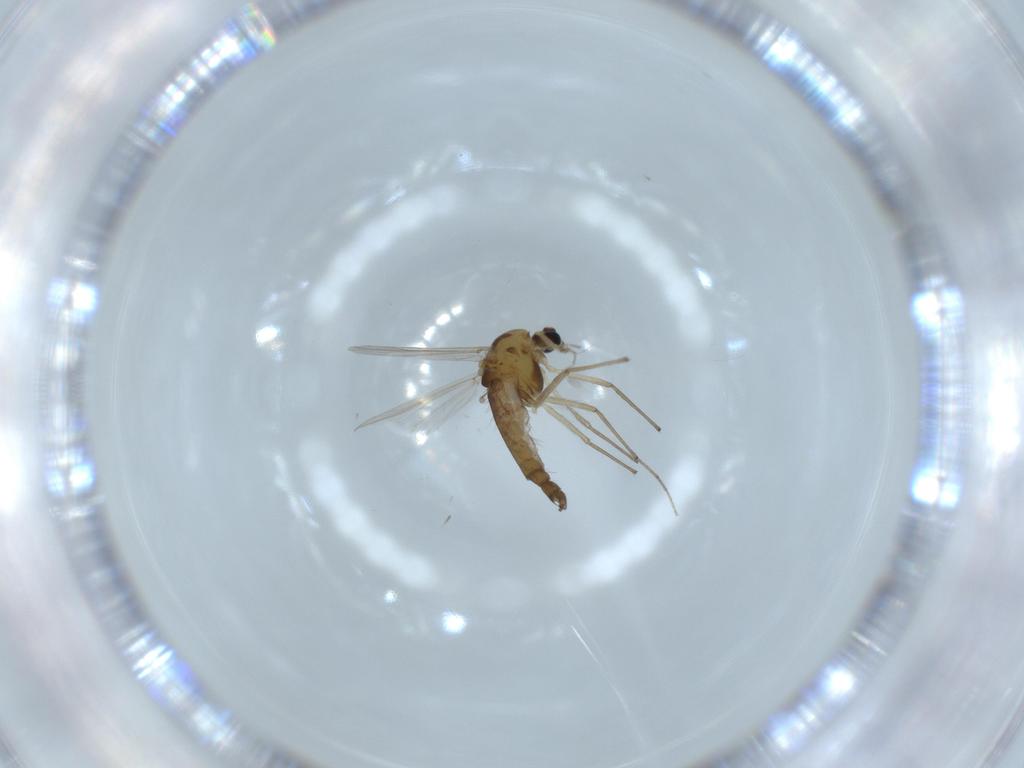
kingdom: Animalia
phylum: Arthropoda
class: Insecta
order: Diptera
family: Chironomidae
